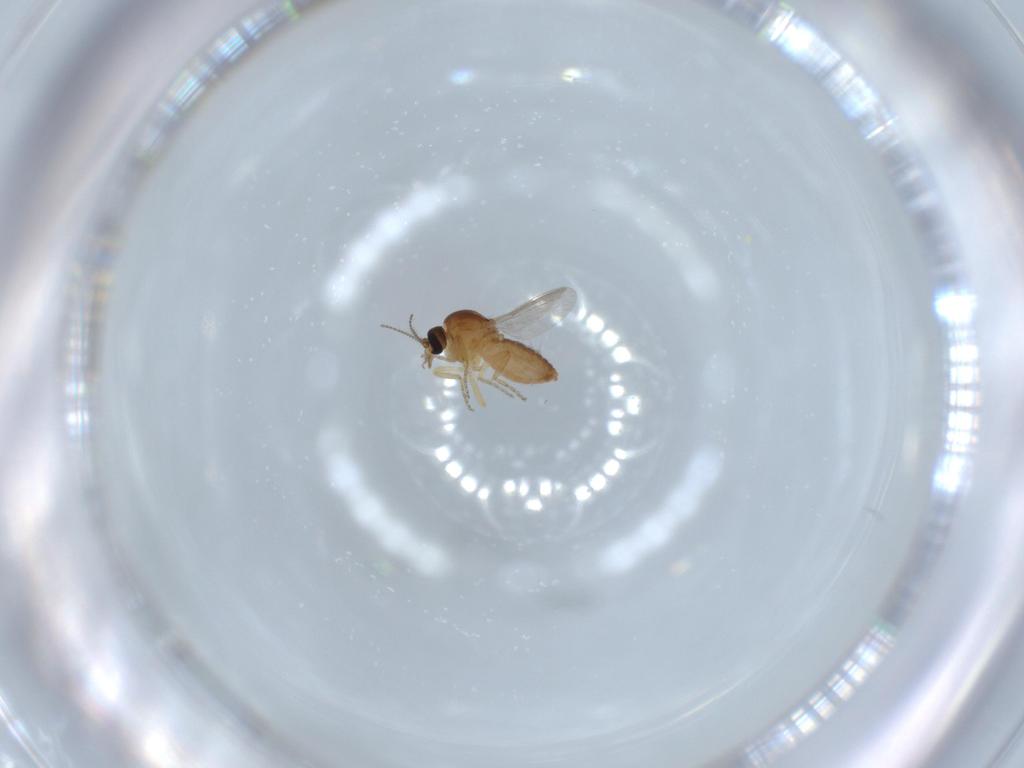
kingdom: Animalia
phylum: Arthropoda
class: Insecta
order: Diptera
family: Ceratopogonidae
